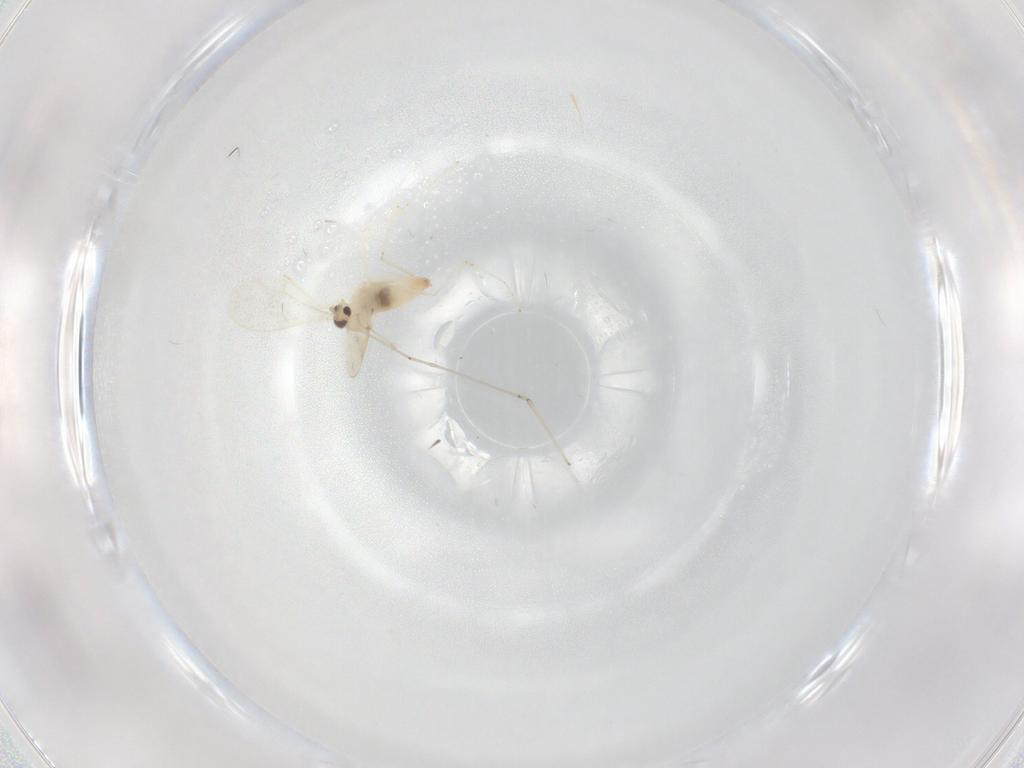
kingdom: Animalia
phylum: Arthropoda
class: Insecta
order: Diptera
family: Cecidomyiidae
